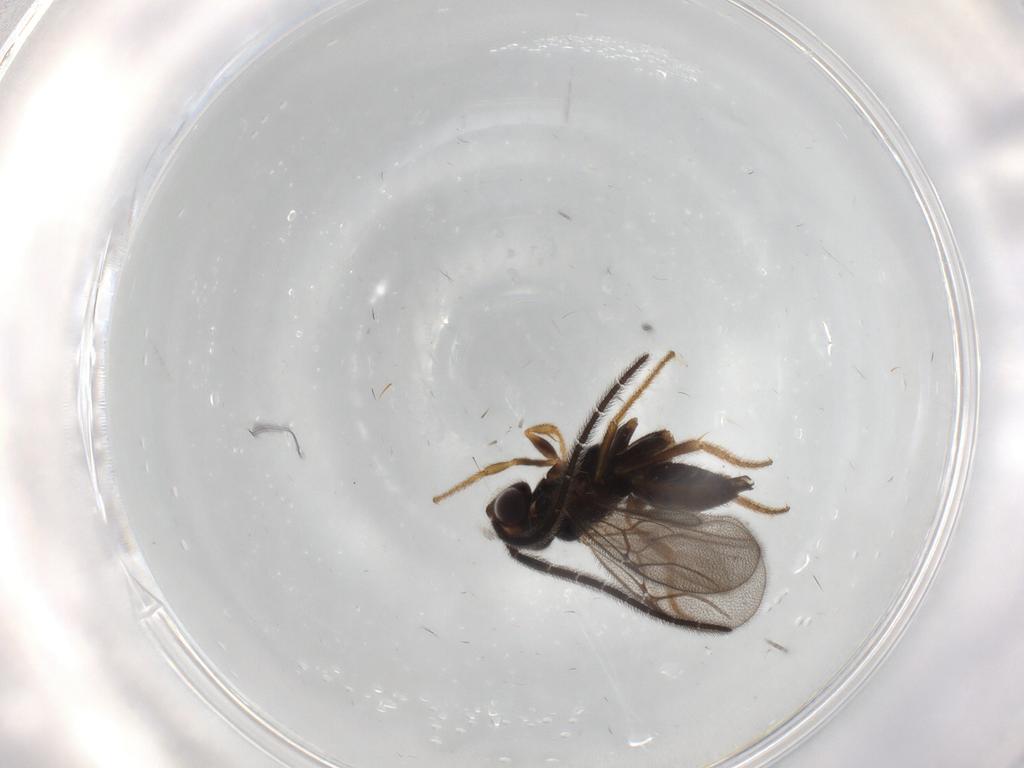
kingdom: Animalia
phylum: Arthropoda
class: Insecta
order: Hymenoptera
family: Dryinidae
